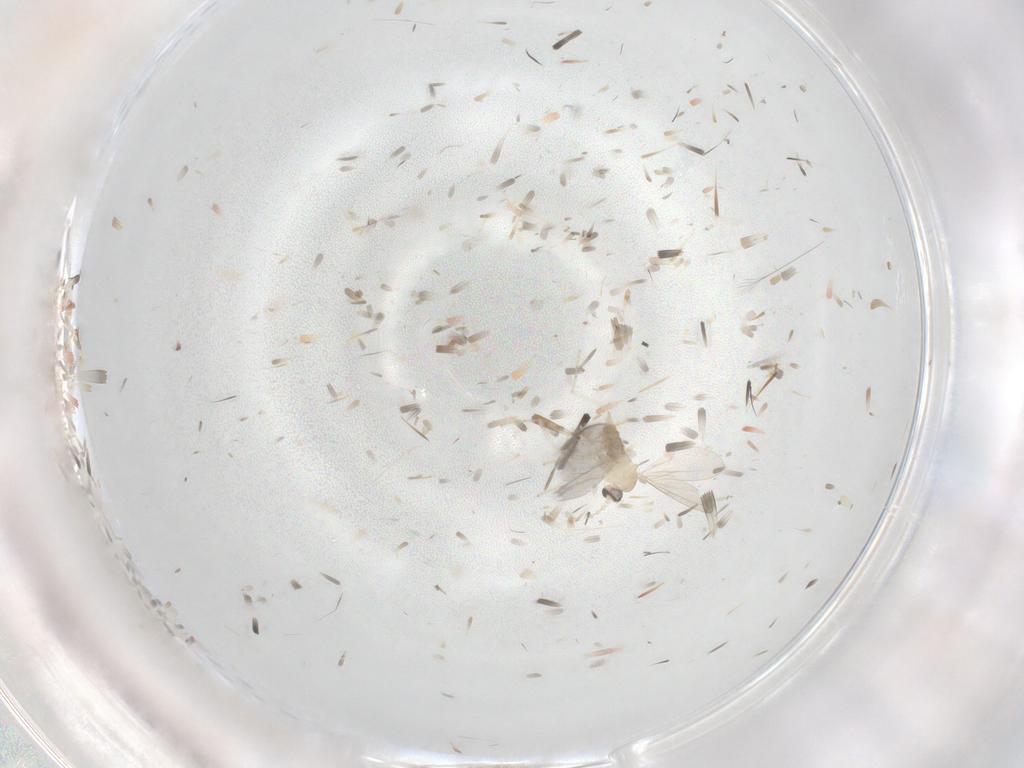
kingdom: Animalia
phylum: Arthropoda
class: Insecta
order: Diptera
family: Cecidomyiidae
